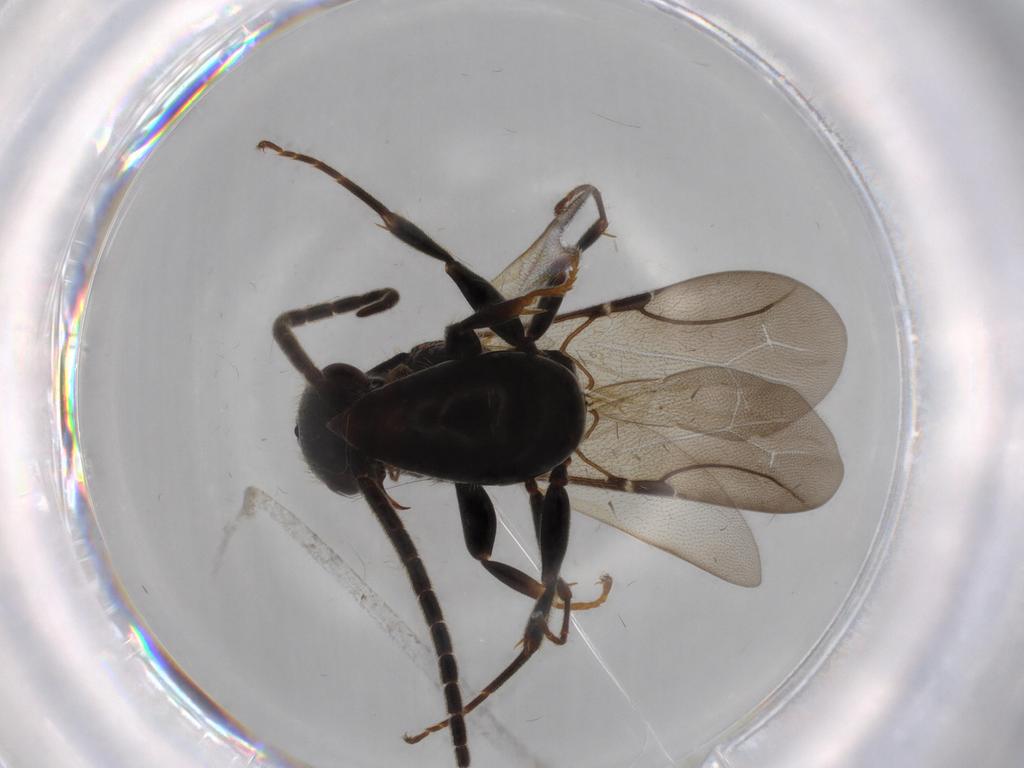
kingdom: Animalia
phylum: Arthropoda
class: Insecta
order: Hymenoptera
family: Bethylidae
